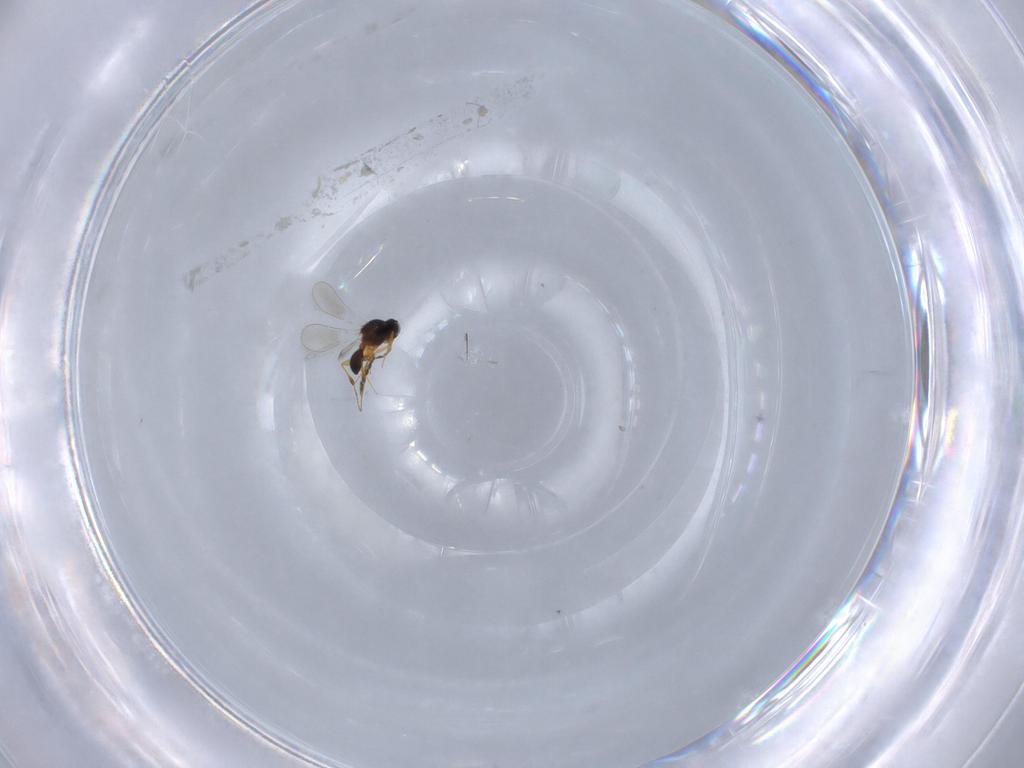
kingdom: Animalia
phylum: Arthropoda
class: Insecta
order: Hymenoptera
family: Platygastridae
